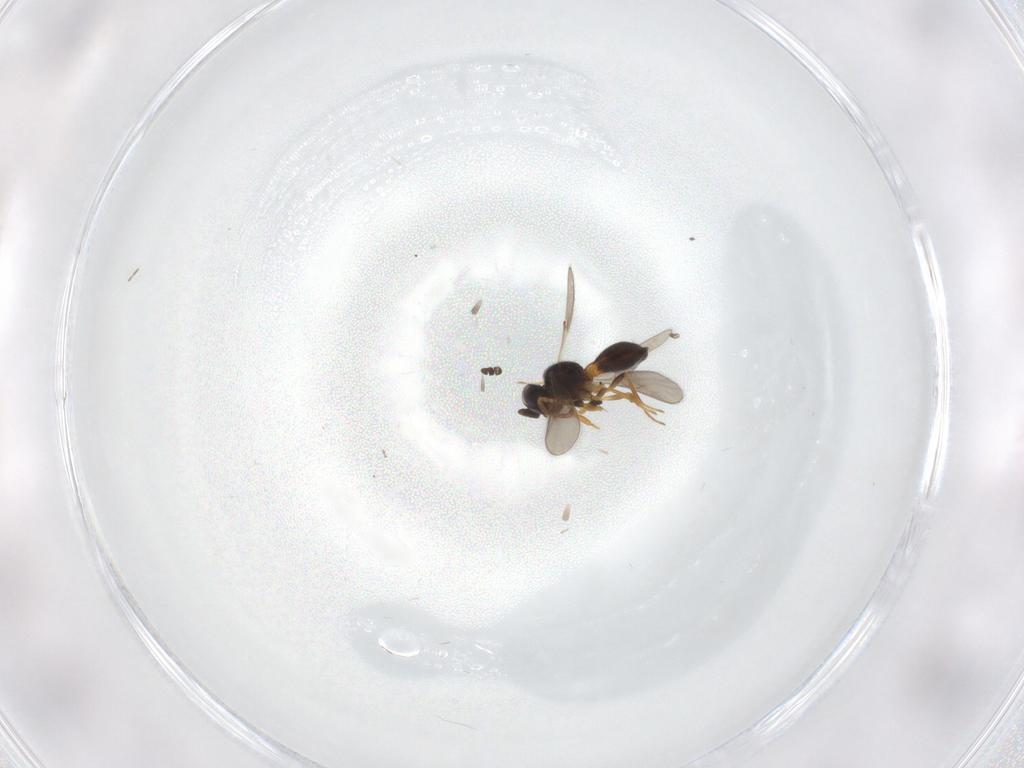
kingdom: Animalia
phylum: Arthropoda
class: Insecta
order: Hymenoptera
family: Scelionidae
